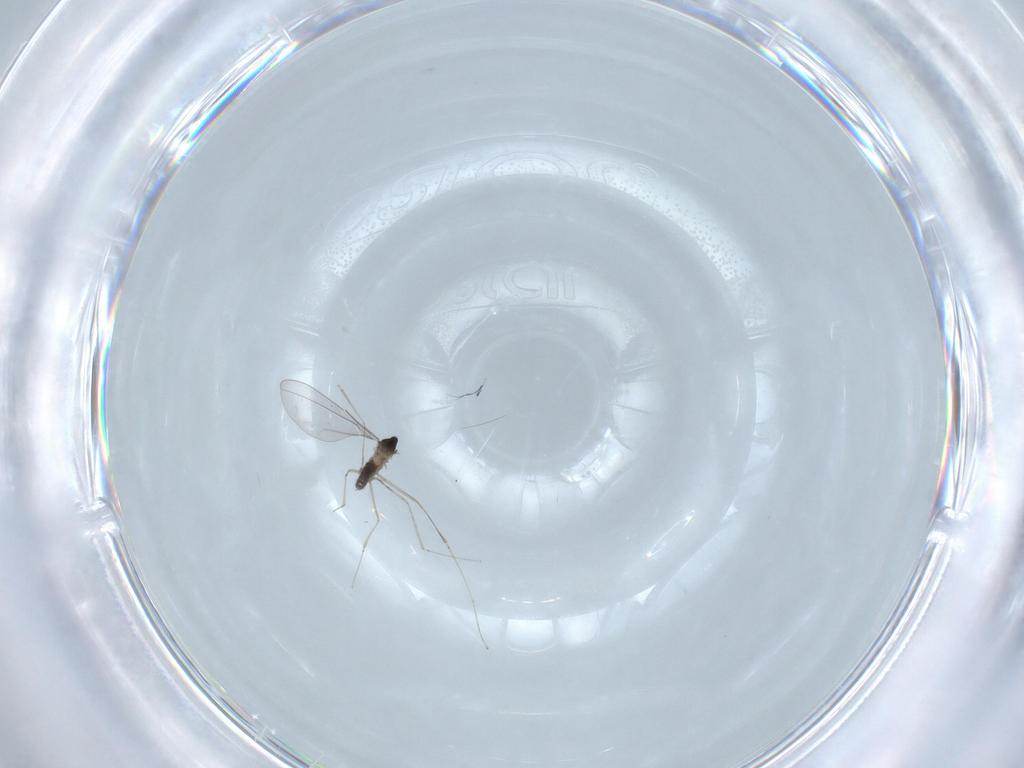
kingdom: Animalia
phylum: Arthropoda
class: Insecta
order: Diptera
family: Cecidomyiidae
